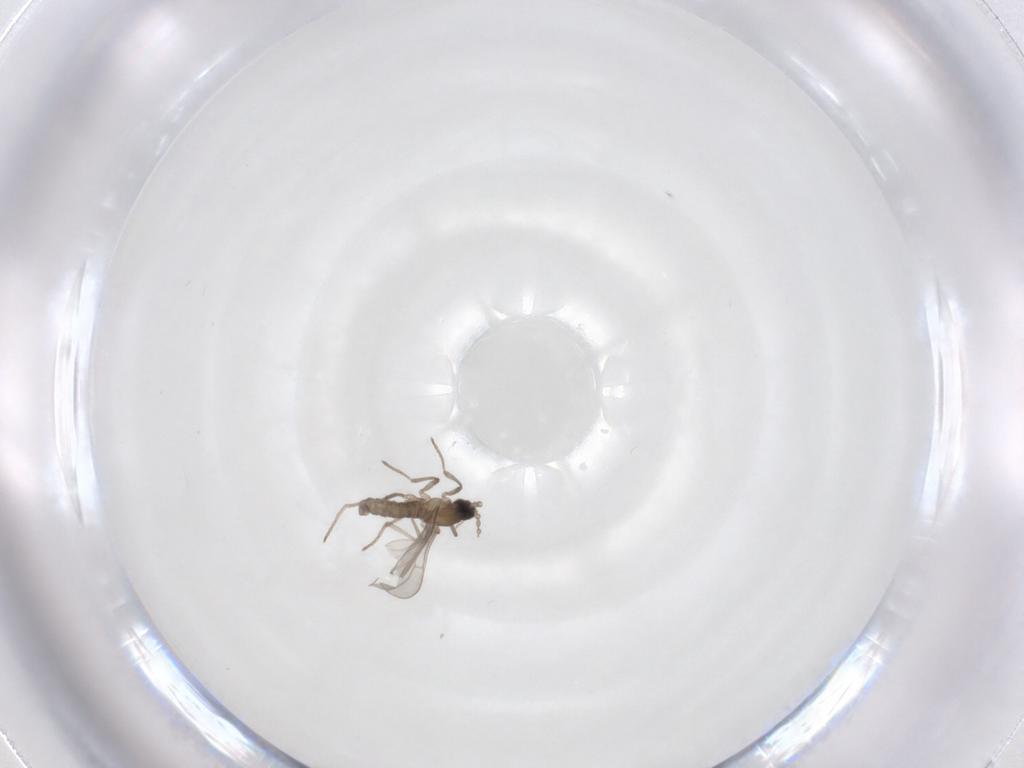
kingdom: Animalia
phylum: Arthropoda
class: Insecta
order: Diptera
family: Cecidomyiidae
